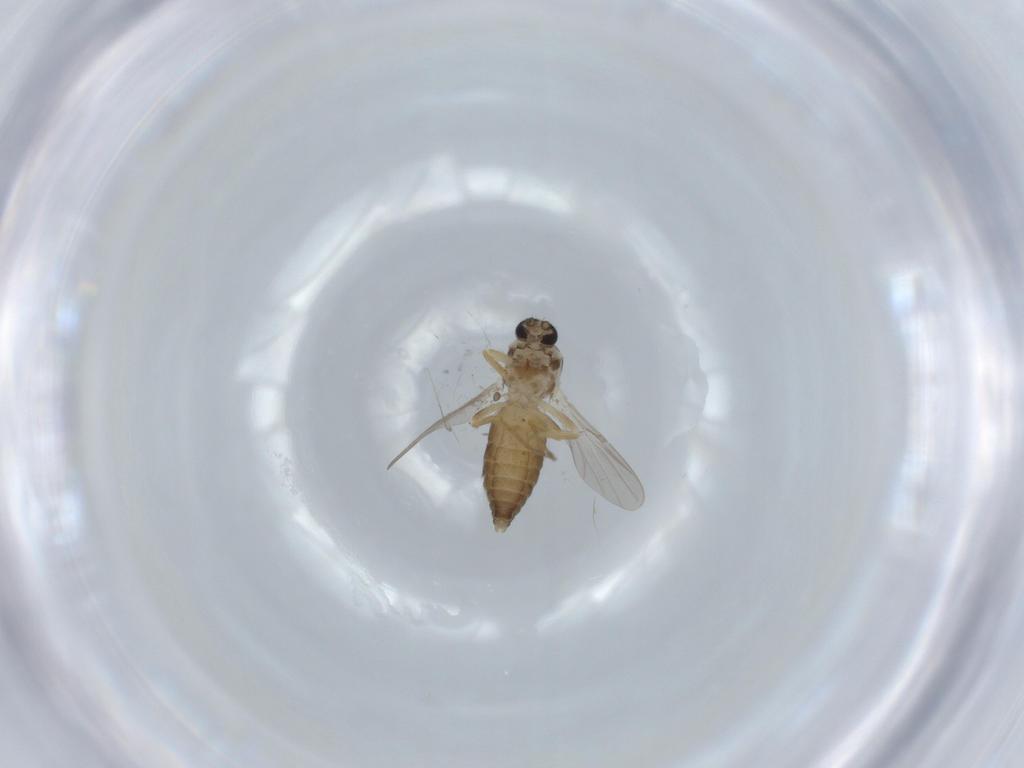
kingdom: Animalia
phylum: Arthropoda
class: Insecta
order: Diptera
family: Ceratopogonidae
